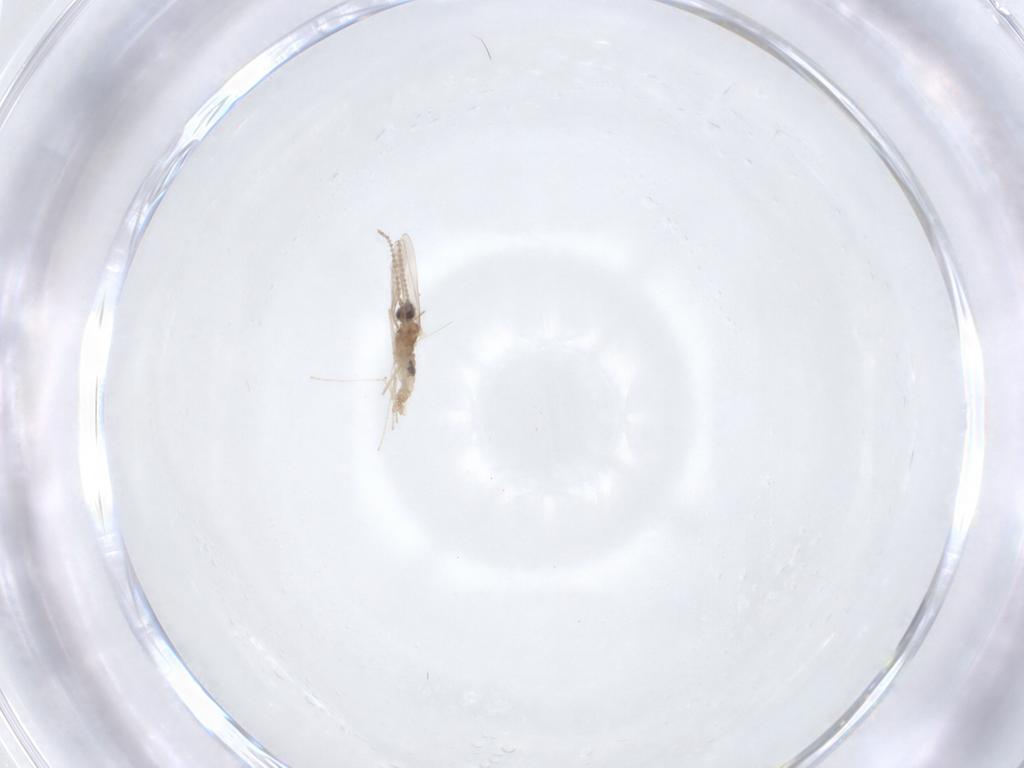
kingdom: Animalia
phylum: Arthropoda
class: Insecta
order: Diptera
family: Cecidomyiidae
